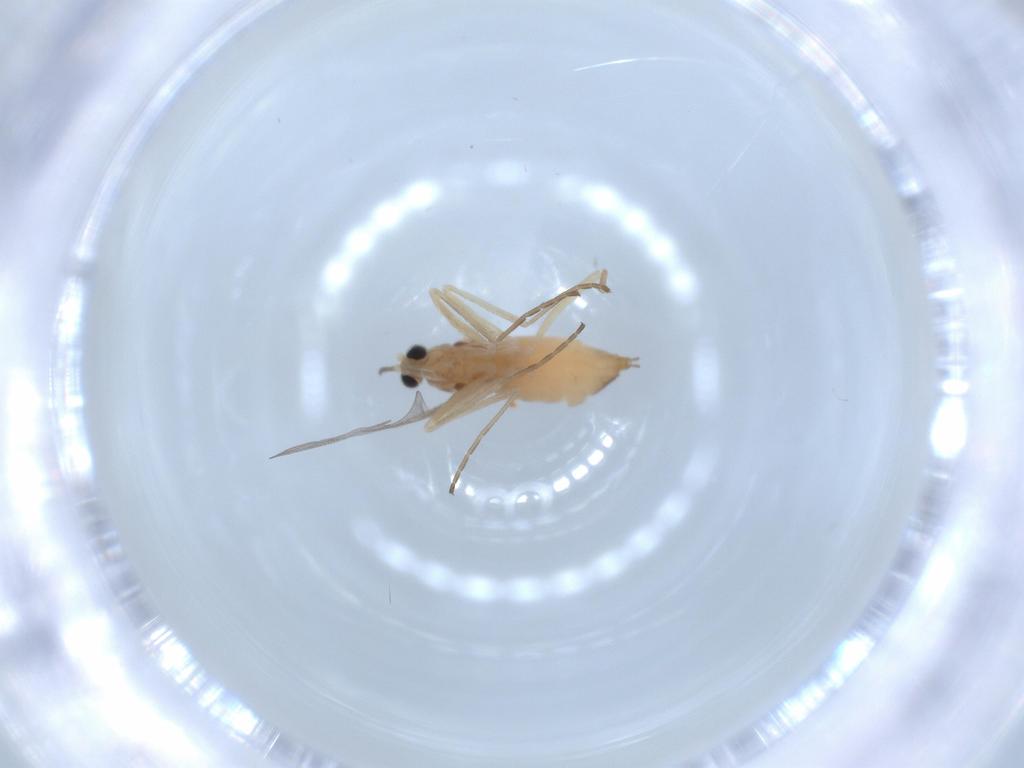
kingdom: Animalia
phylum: Arthropoda
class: Insecta
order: Diptera
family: Cecidomyiidae
